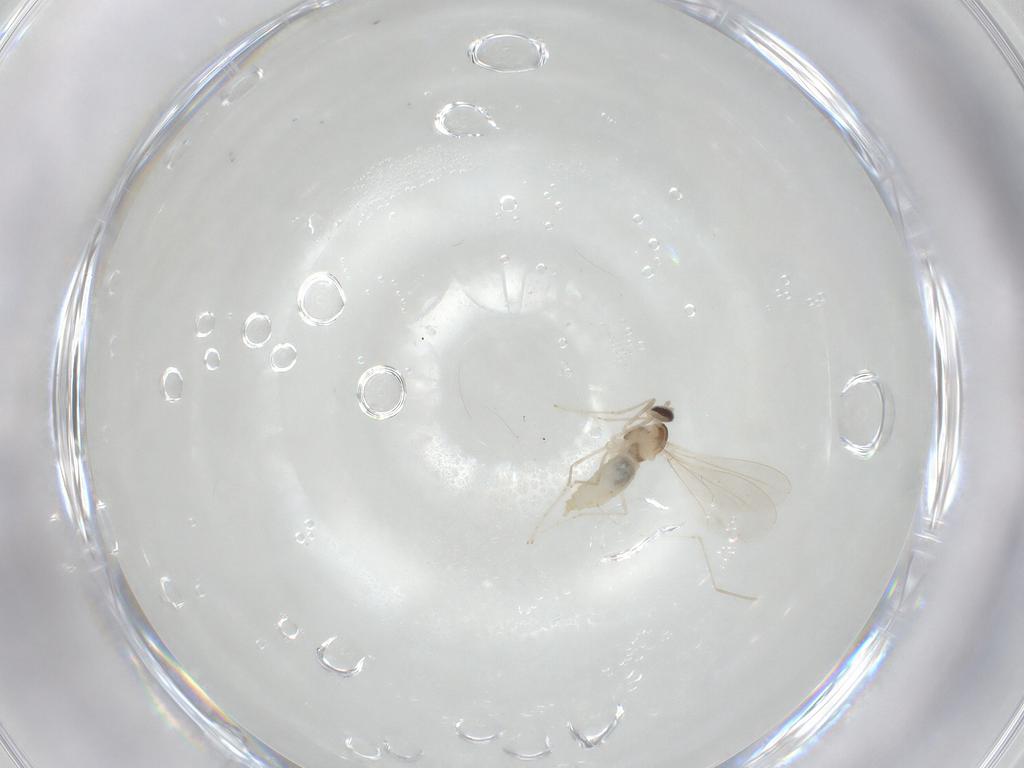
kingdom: Animalia
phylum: Arthropoda
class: Insecta
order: Diptera
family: Cecidomyiidae
